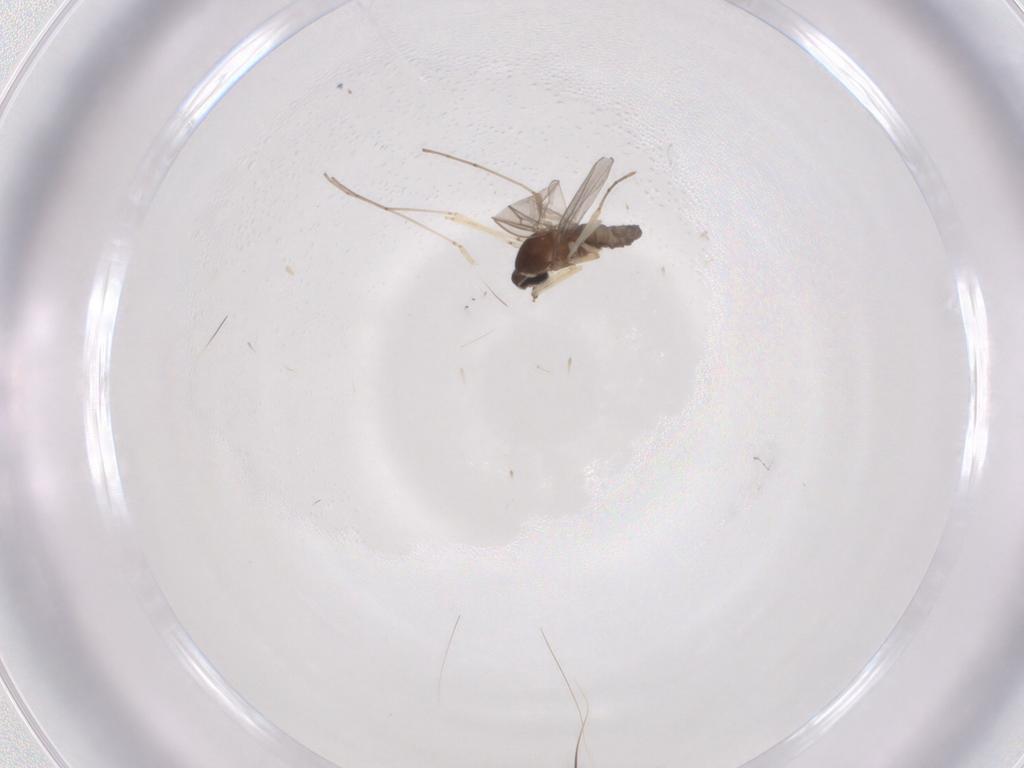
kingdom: Animalia
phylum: Arthropoda
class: Insecta
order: Diptera
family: Cecidomyiidae
